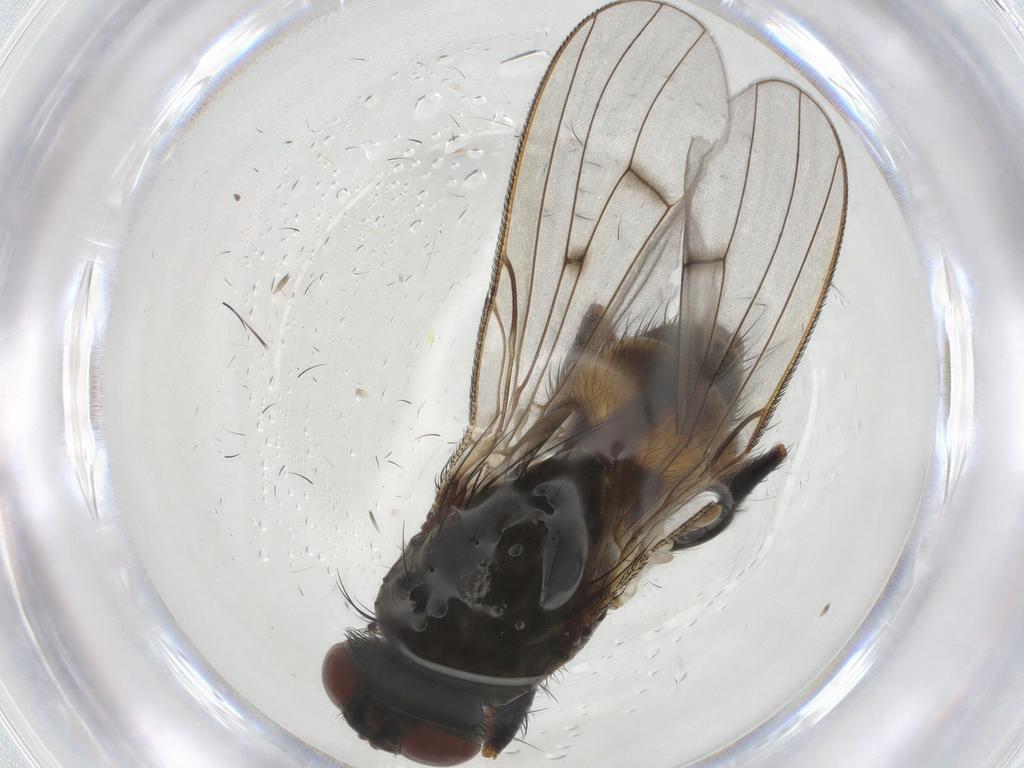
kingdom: Animalia
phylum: Arthropoda
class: Insecta
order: Diptera
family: Muscidae
